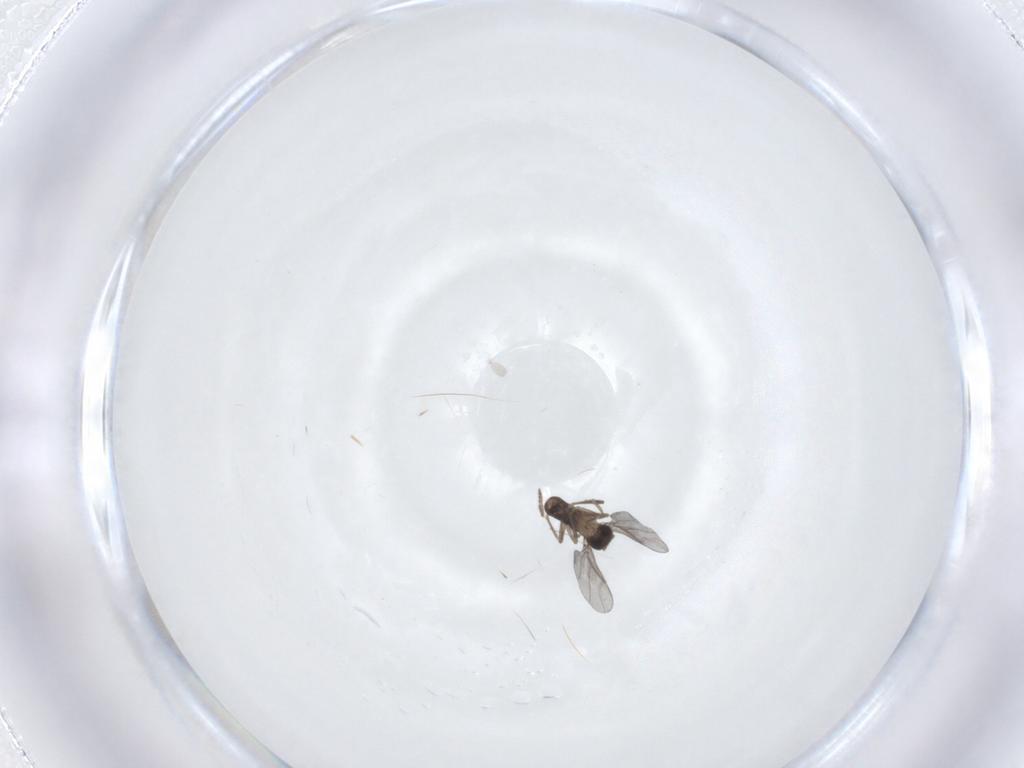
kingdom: Animalia
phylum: Arthropoda
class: Insecta
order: Diptera
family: Phoridae
